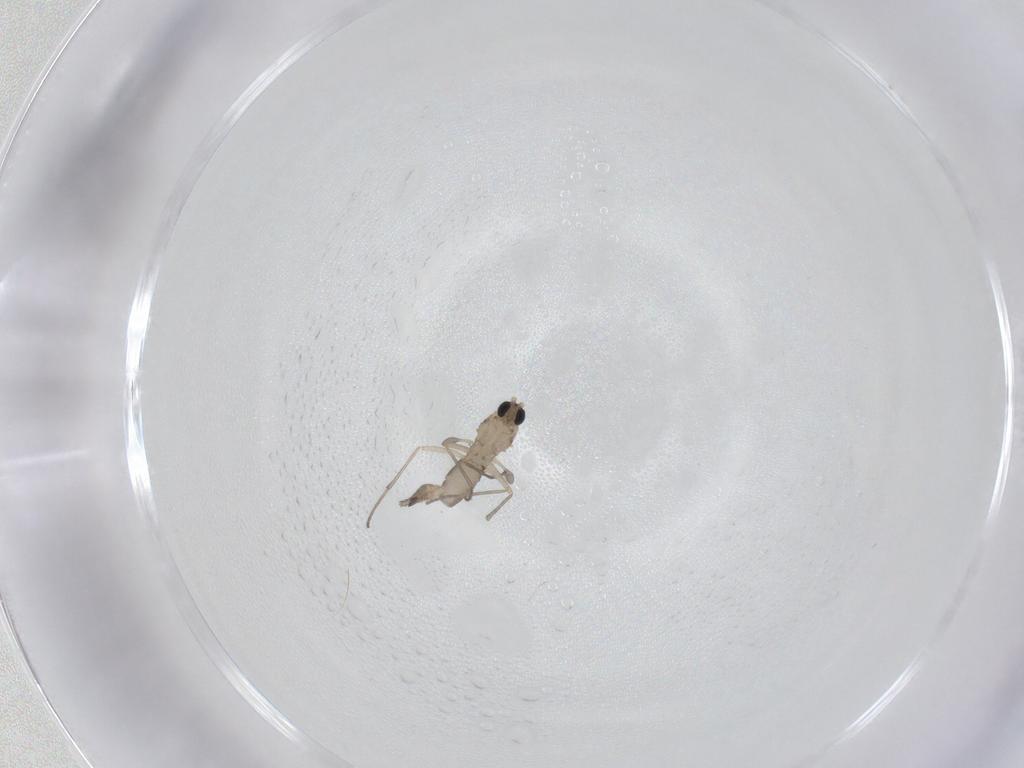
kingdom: Animalia
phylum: Arthropoda
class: Insecta
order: Diptera
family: Sciaridae
